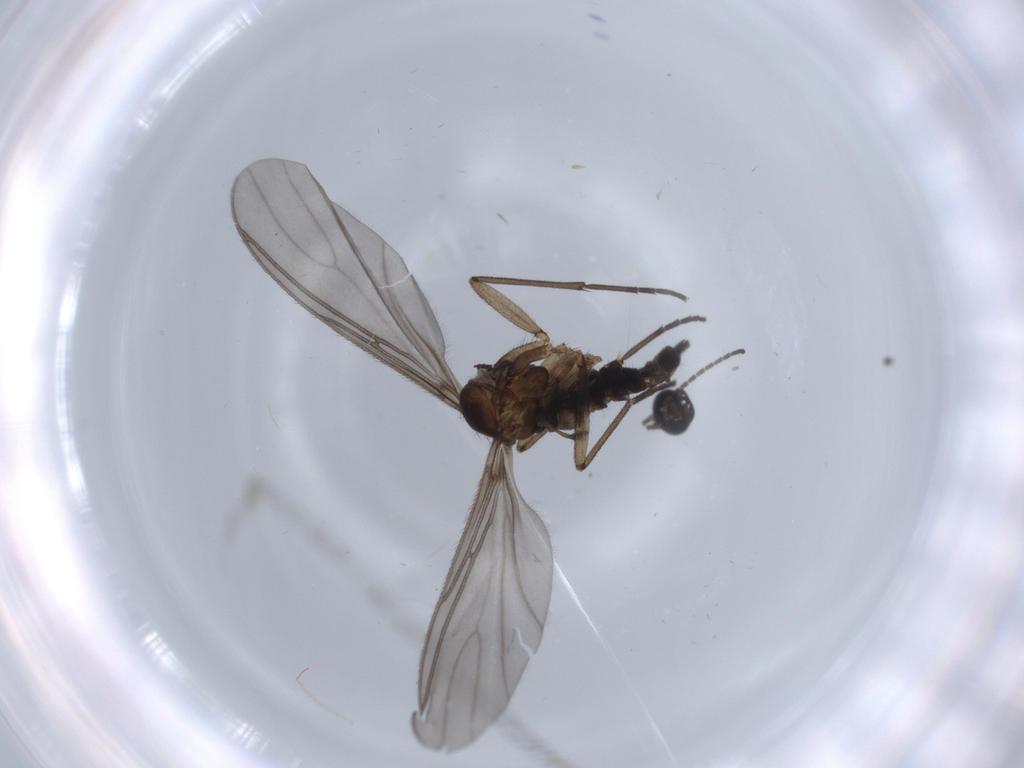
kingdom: Animalia
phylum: Arthropoda
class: Insecta
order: Diptera
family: Sciaridae
